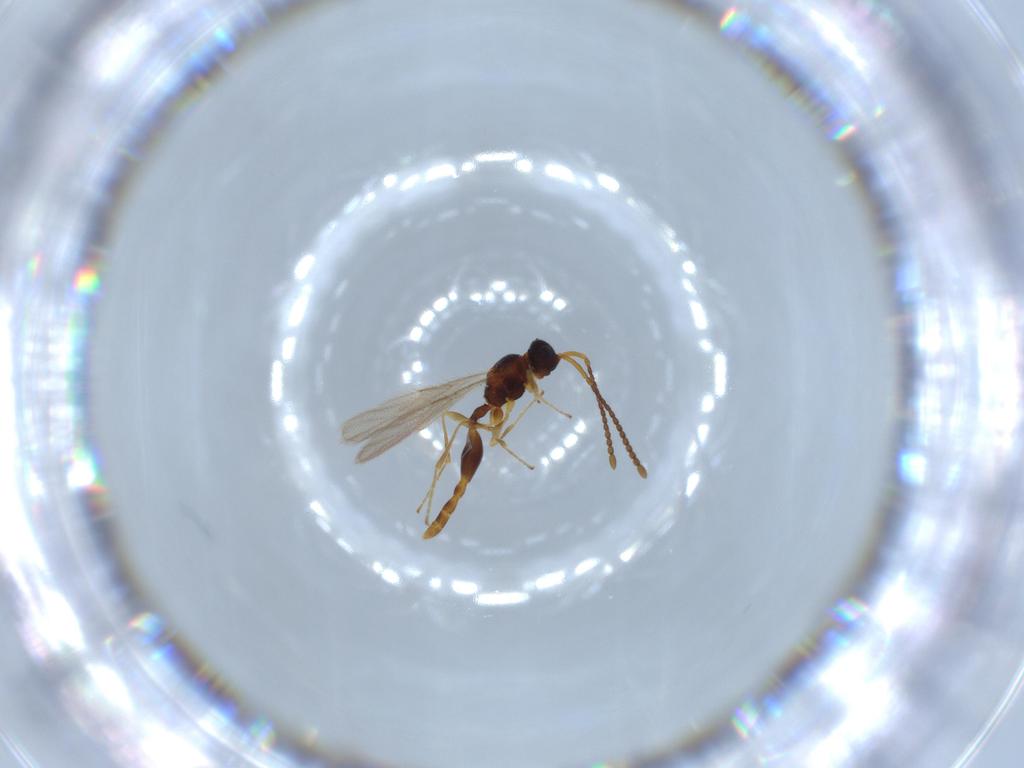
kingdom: Animalia
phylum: Arthropoda
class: Insecta
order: Hymenoptera
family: Diapriidae
